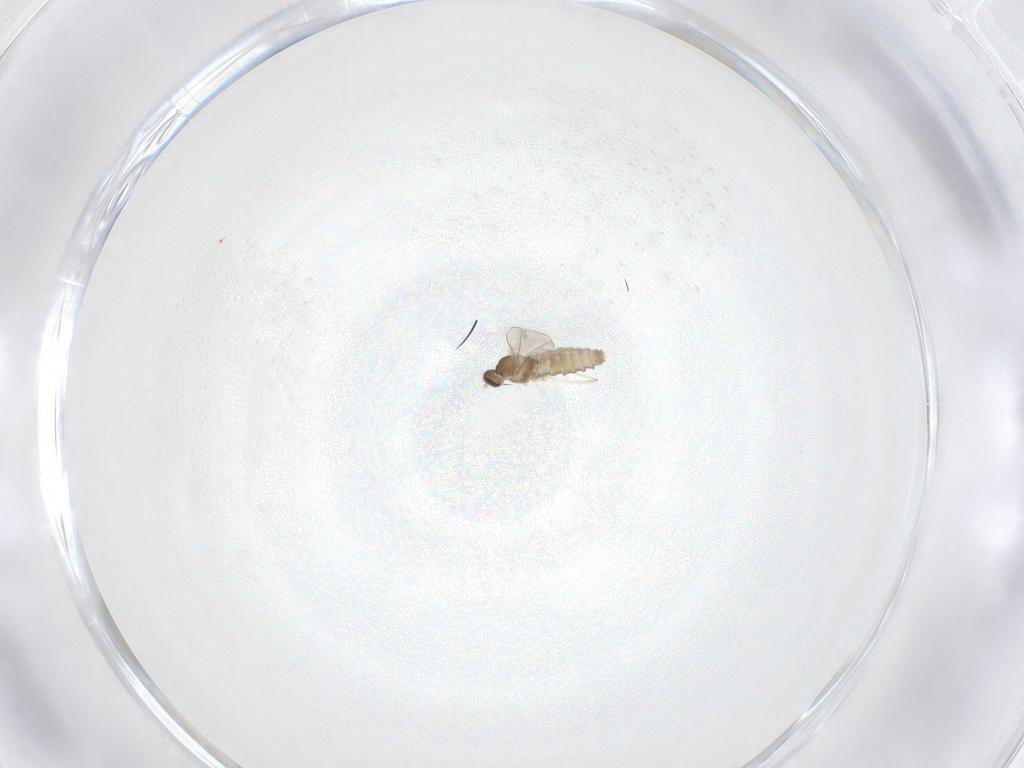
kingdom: Animalia
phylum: Arthropoda
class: Insecta
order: Diptera
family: Cecidomyiidae
